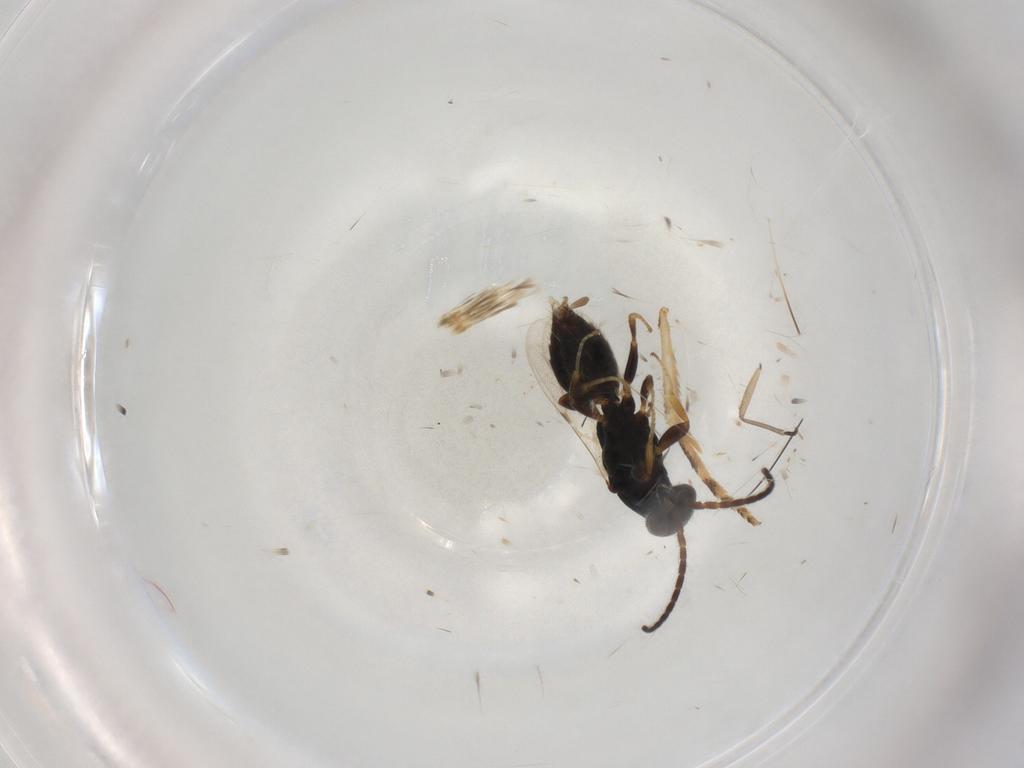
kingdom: Animalia
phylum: Arthropoda
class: Insecta
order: Hymenoptera
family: Bethylidae
